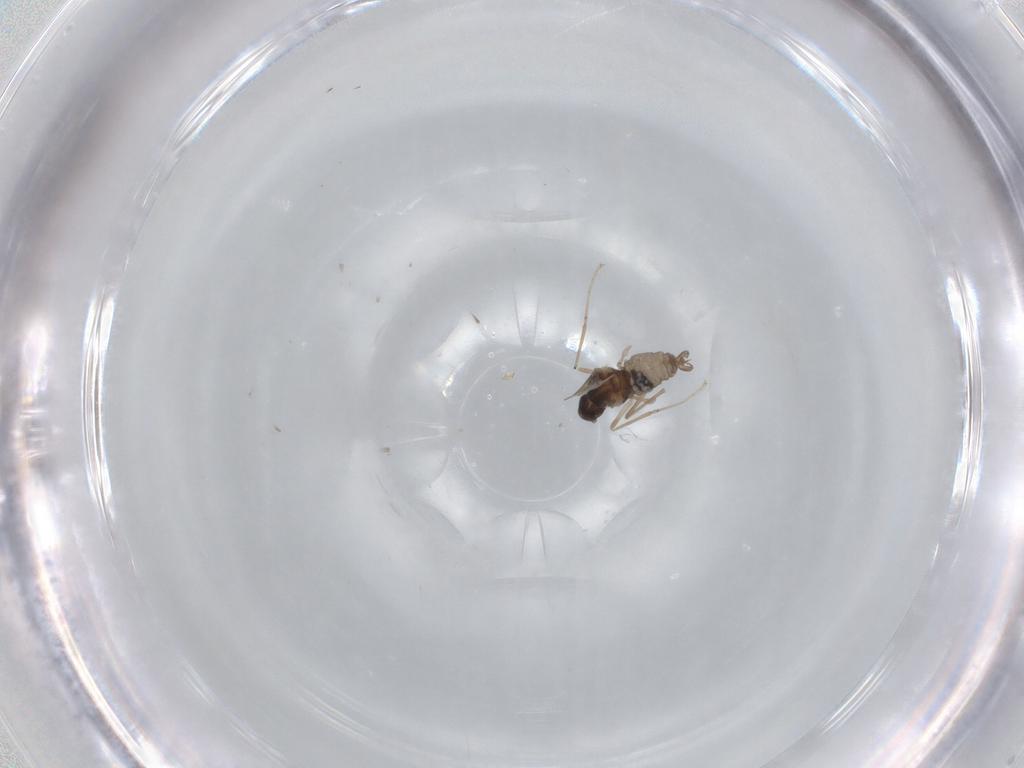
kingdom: Animalia
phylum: Arthropoda
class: Insecta
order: Diptera
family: Cecidomyiidae
